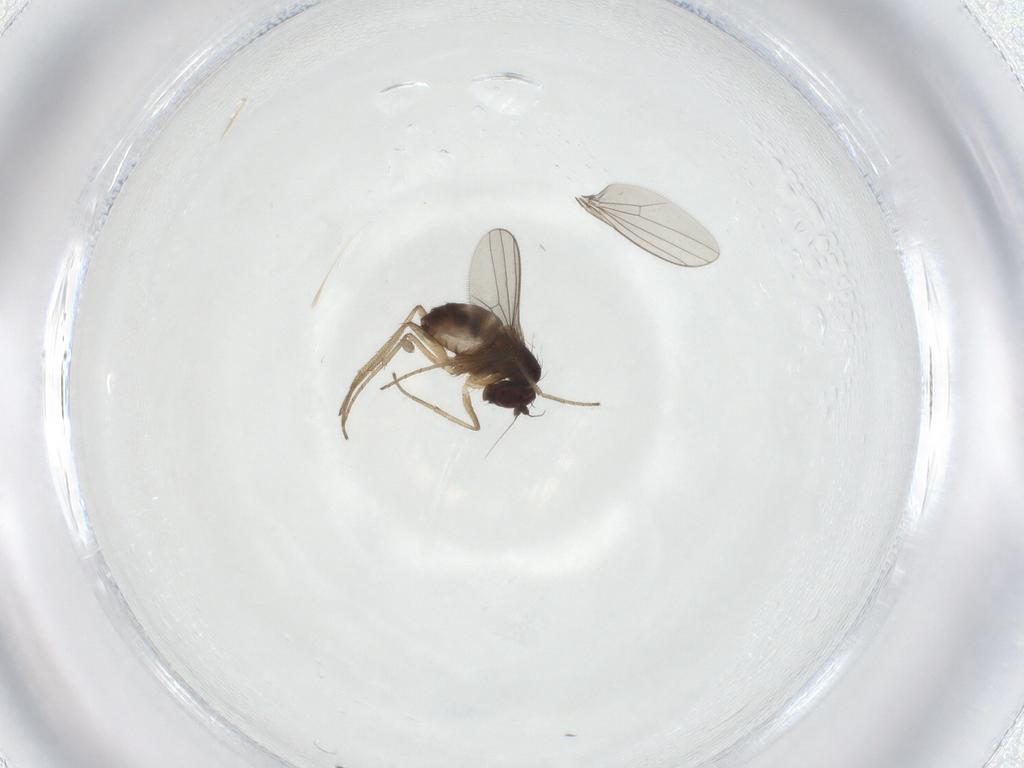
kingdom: Animalia
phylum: Arthropoda
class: Insecta
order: Diptera
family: Dolichopodidae
